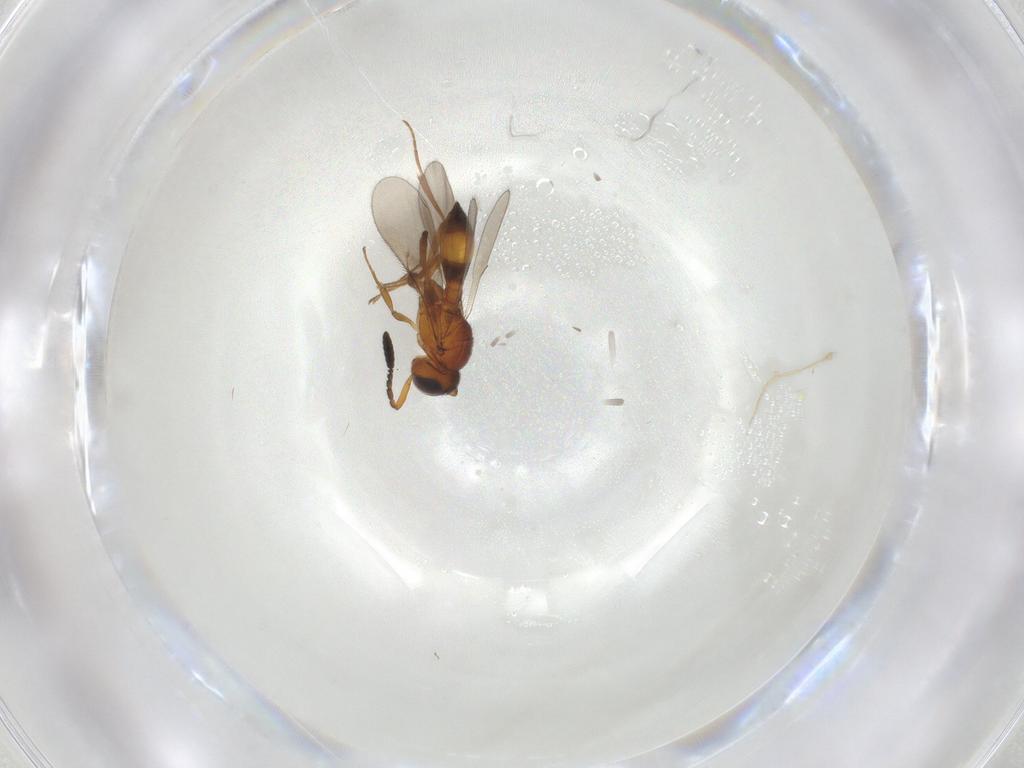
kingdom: Animalia
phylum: Arthropoda
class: Insecta
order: Hymenoptera
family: Scelionidae
